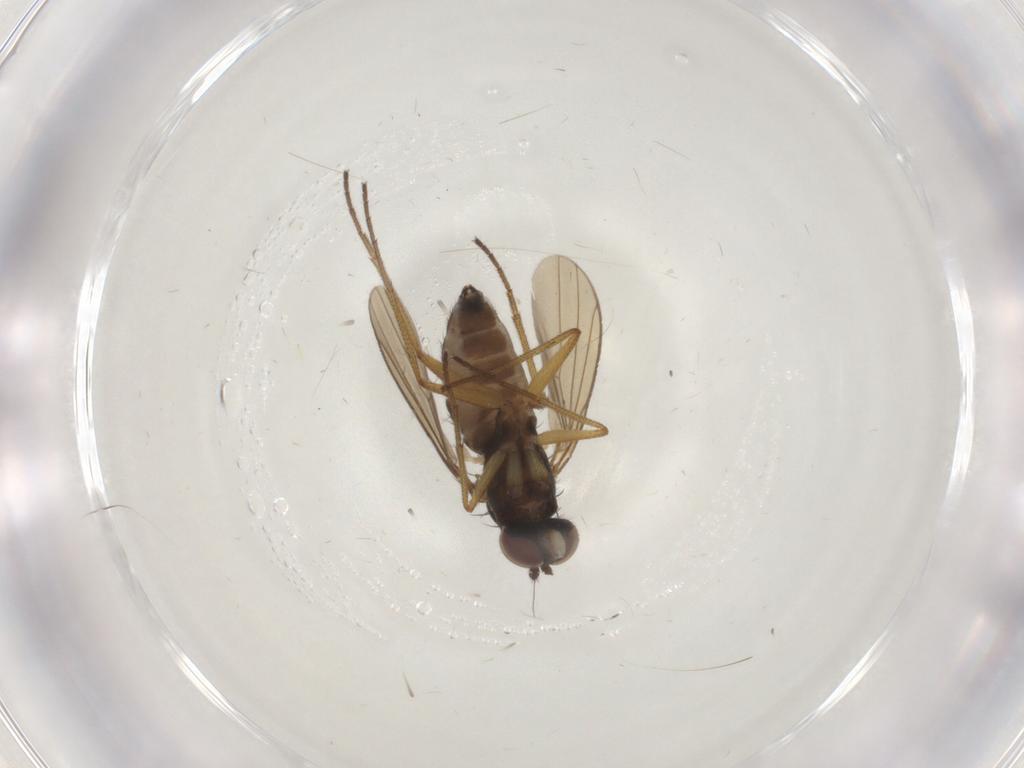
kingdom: Animalia
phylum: Arthropoda
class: Insecta
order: Diptera
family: Dolichopodidae
